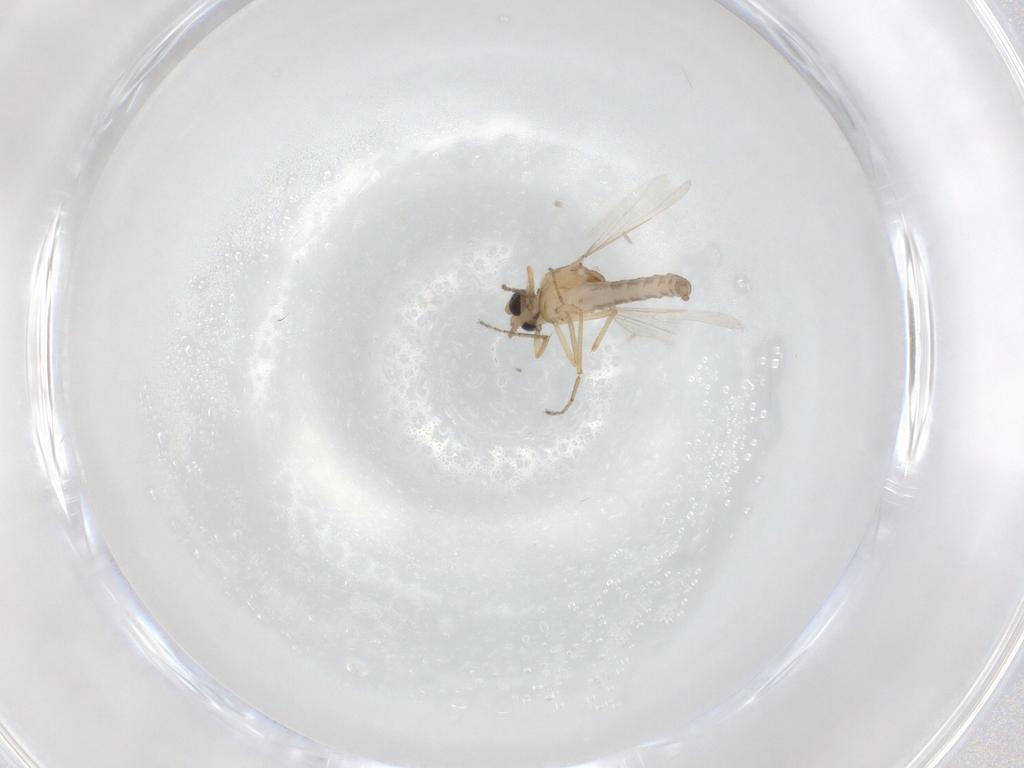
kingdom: Animalia
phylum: Arthropoda
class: Insecta
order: Diptera
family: Ceratopogonidae
